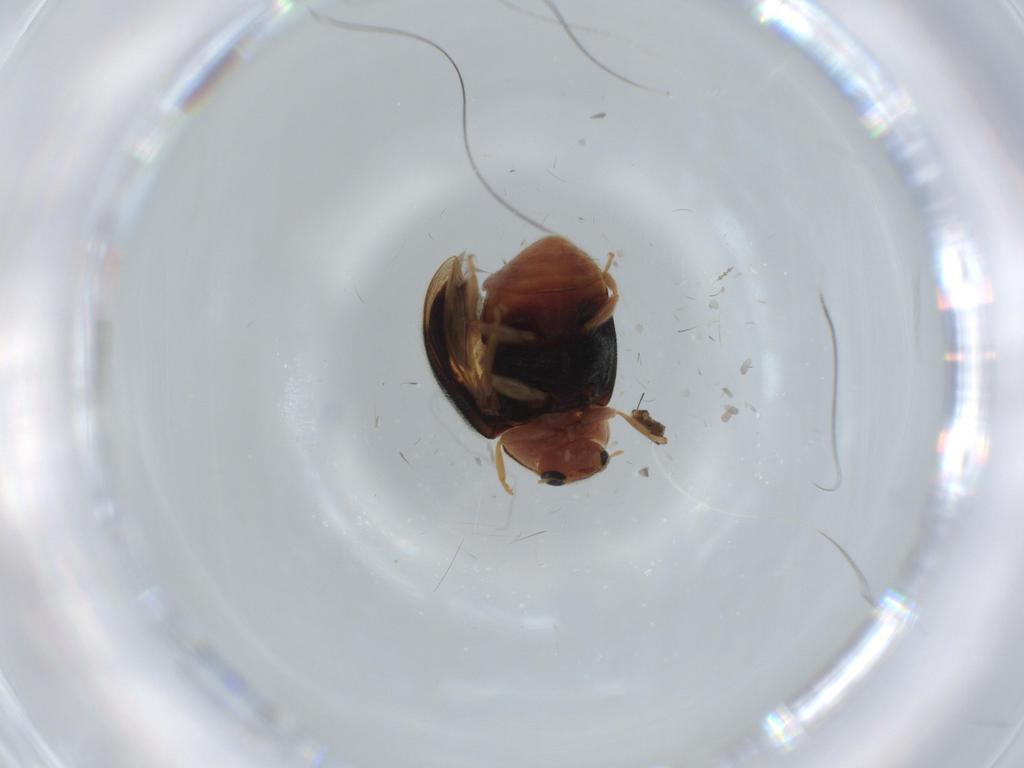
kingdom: Animalia
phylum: Arthropoda
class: Insecta
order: Coleoptera
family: Coccinellidae
